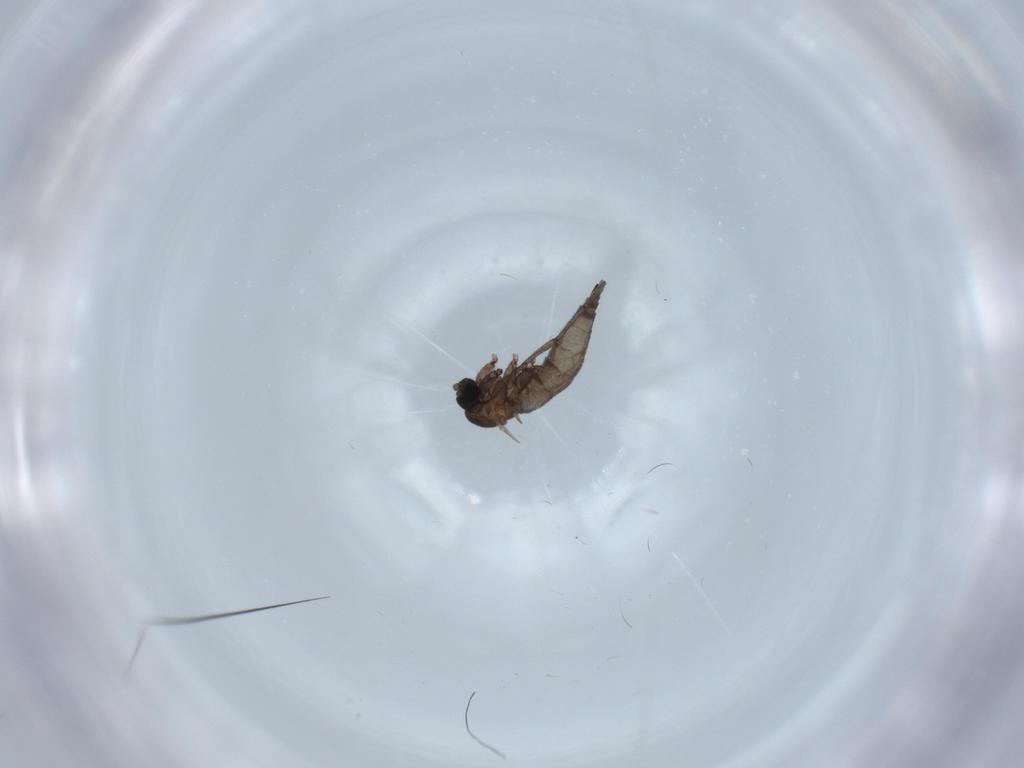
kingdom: Animalia
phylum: Arthropoda
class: Insecta
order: Diptera
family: Sciaridae
